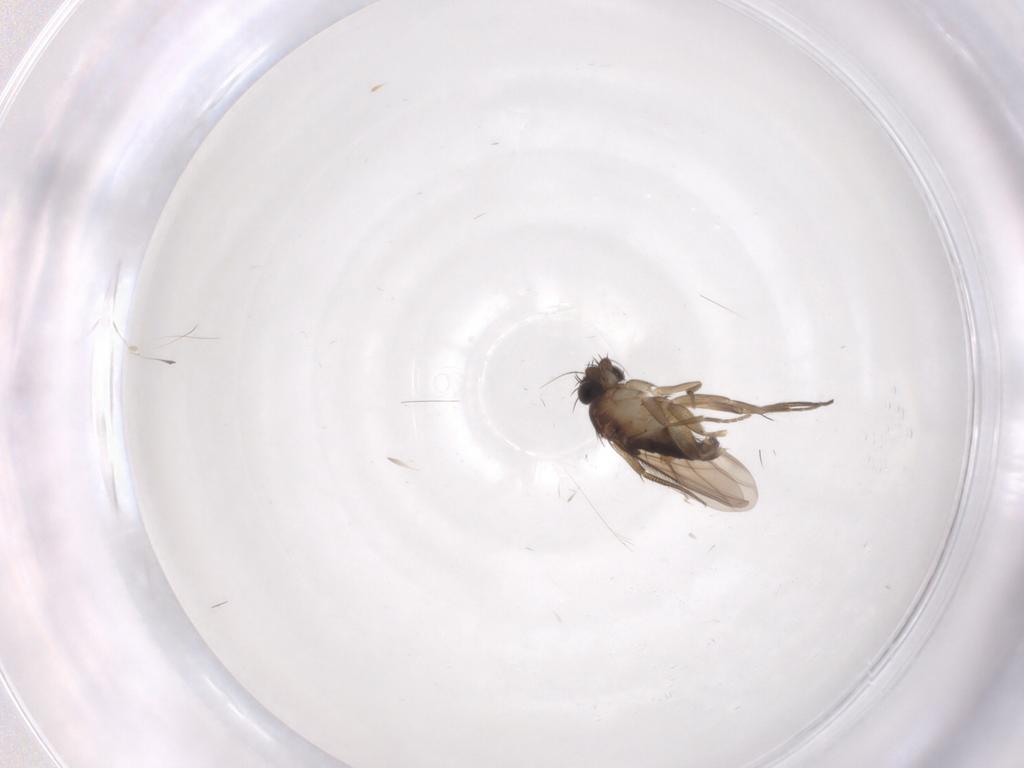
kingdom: Animalia
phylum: Arthropoda
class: Insecta
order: Diptera
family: Phoridae
